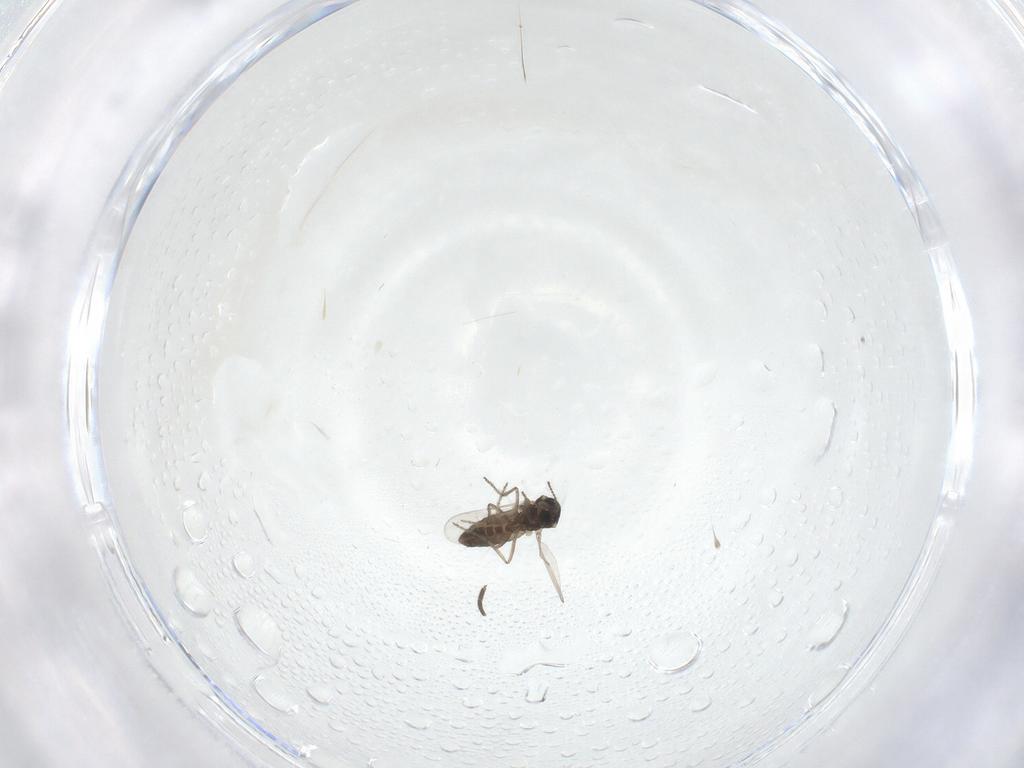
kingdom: Animalia
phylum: Arthropoda
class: Insecta
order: Diptera
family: Ceratopogonidae
